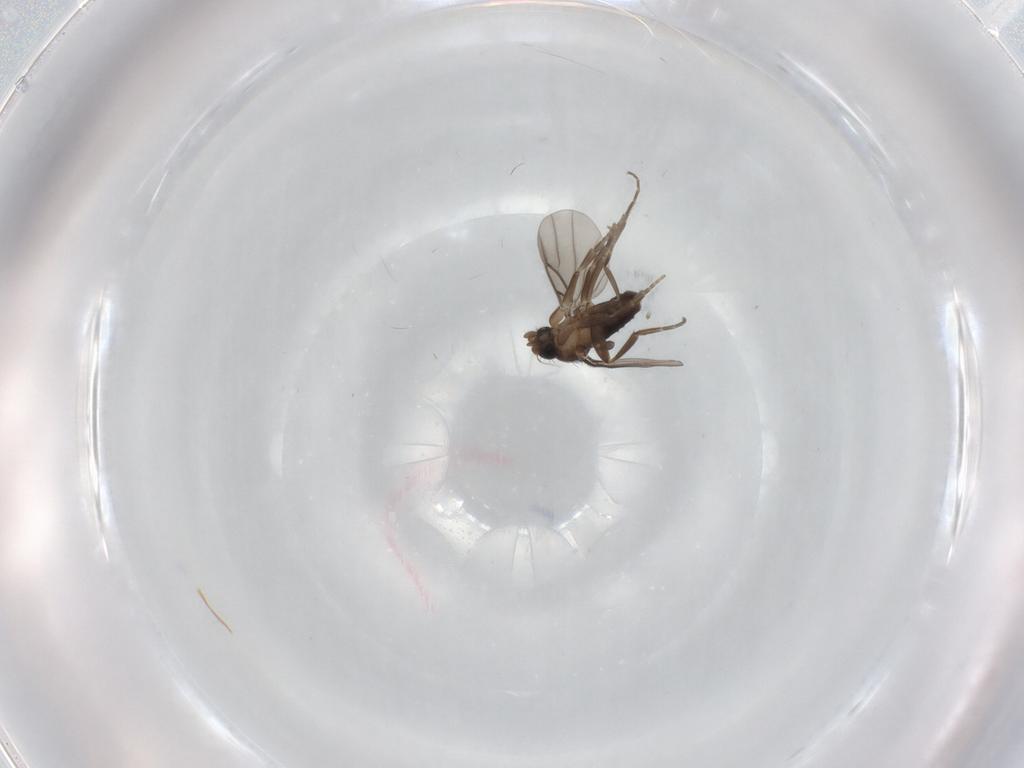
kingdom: Animalia
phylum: Arthropoda
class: Insecta
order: Diptera
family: Phoridae
